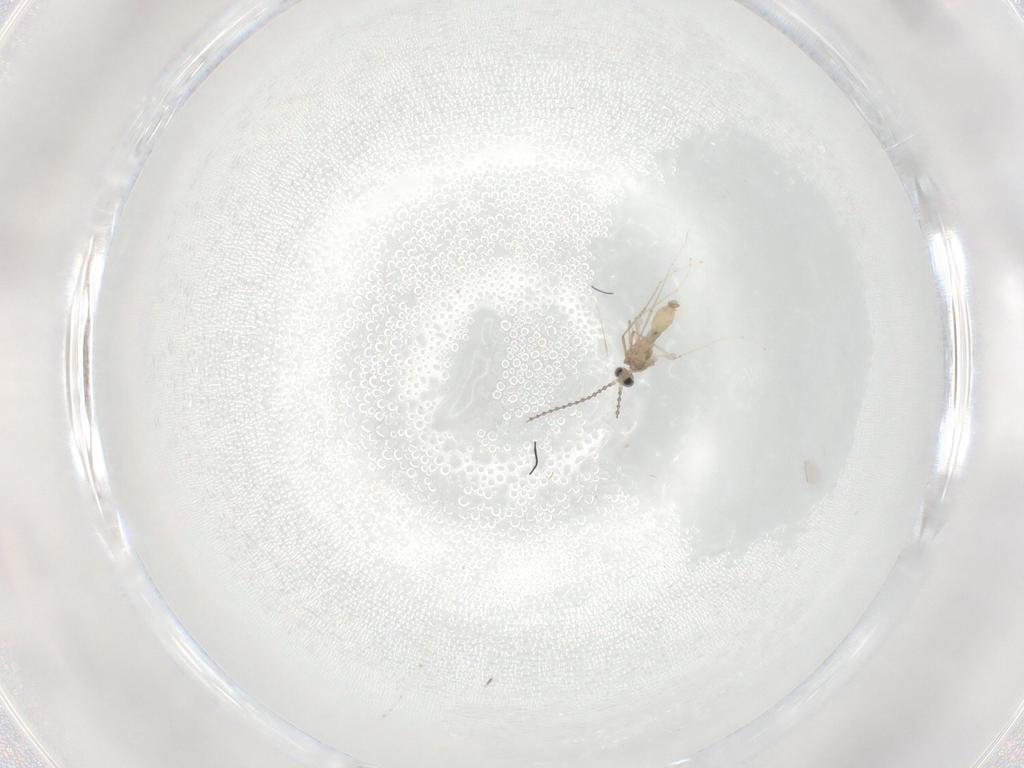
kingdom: Animalia
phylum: Arthropoda
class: Insecta
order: Diptera
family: Cecidomyiidae
